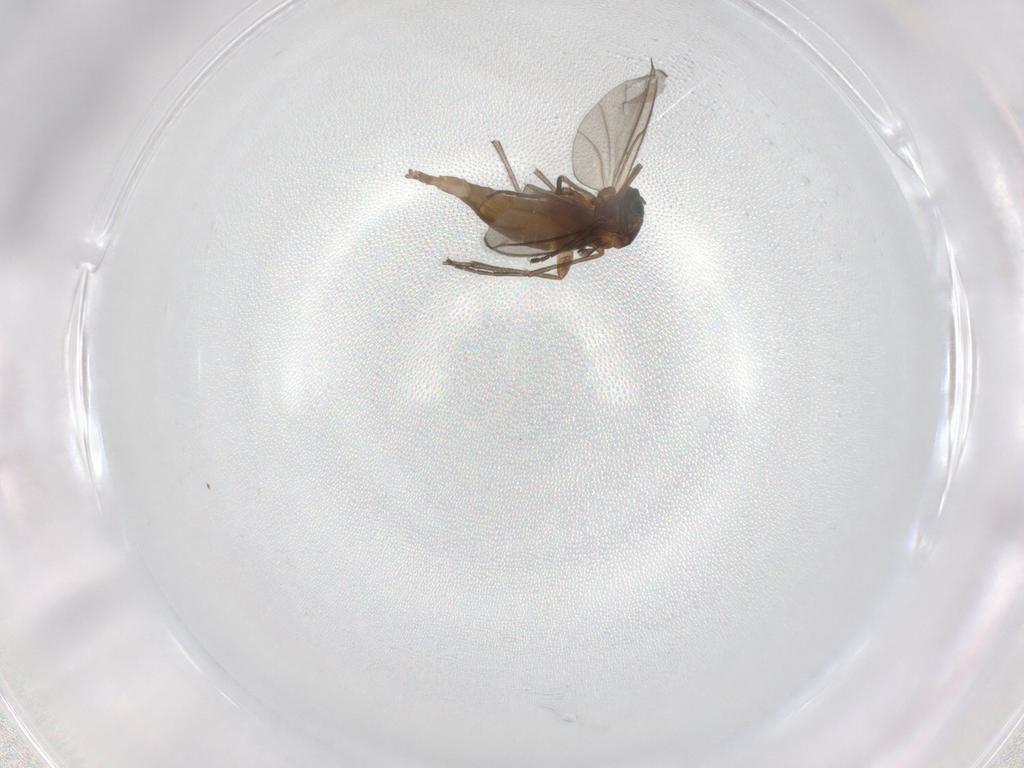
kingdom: Animalia
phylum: Arthropoda
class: Insecta
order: Diptera
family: Sciaridae
